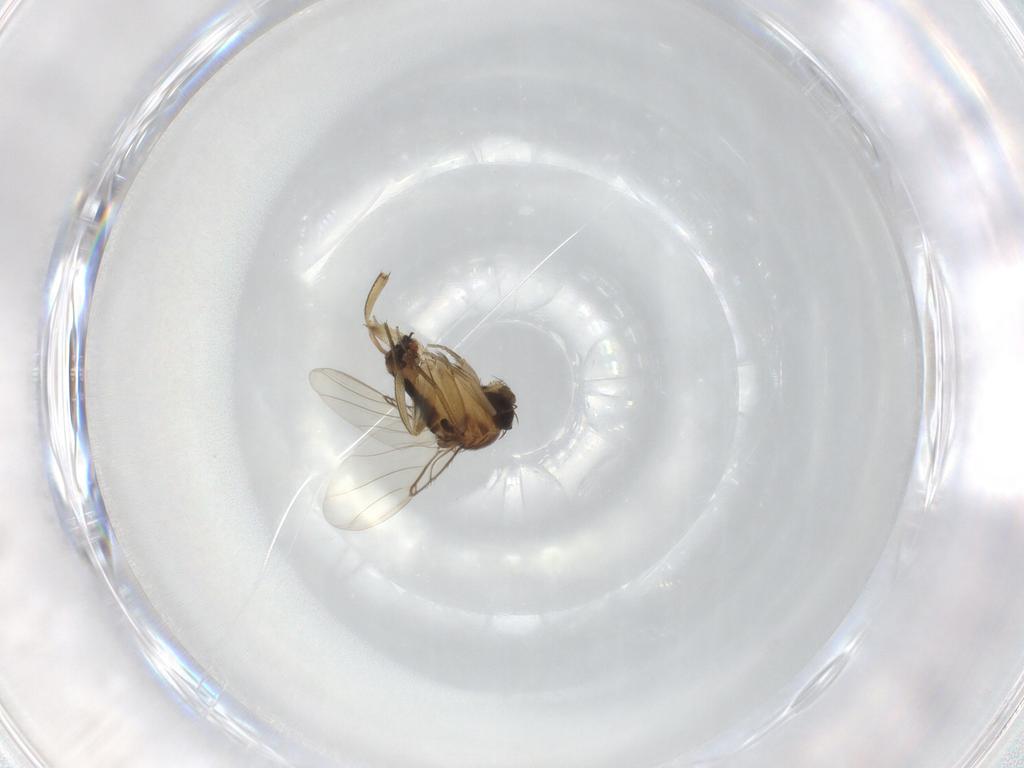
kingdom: Animalia
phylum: Arthropoda
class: Insecta
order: Diptera
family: Phoridae
